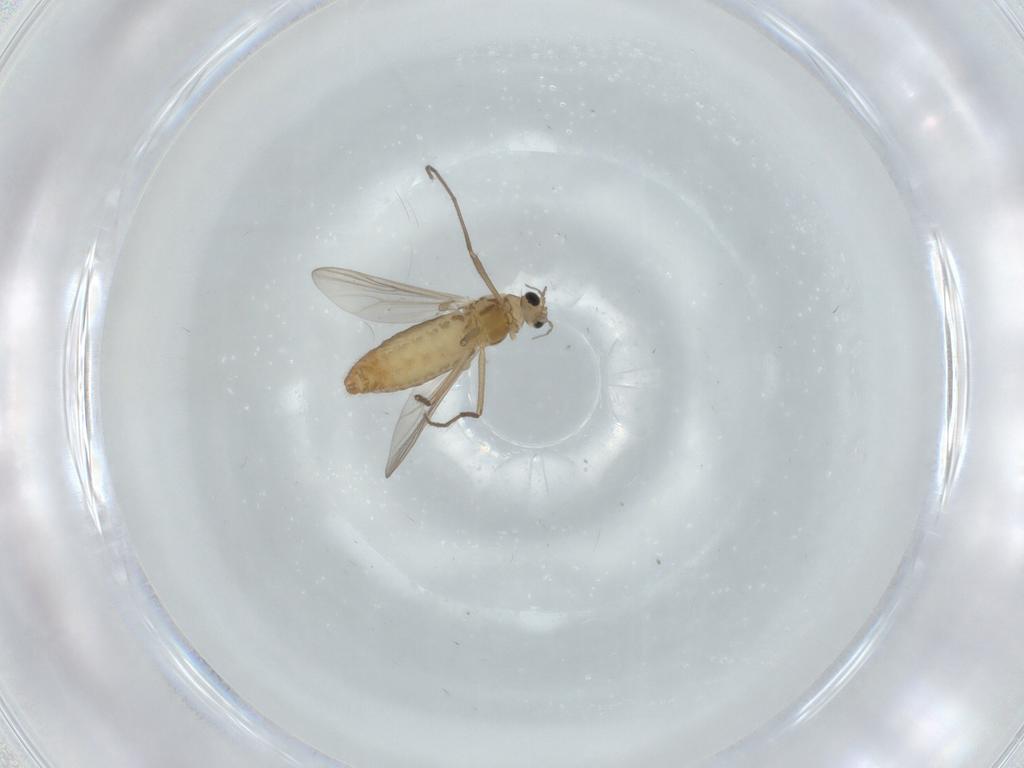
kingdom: Animalia
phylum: Arthropoda
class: Insecta
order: Diptera
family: Chironomidae
